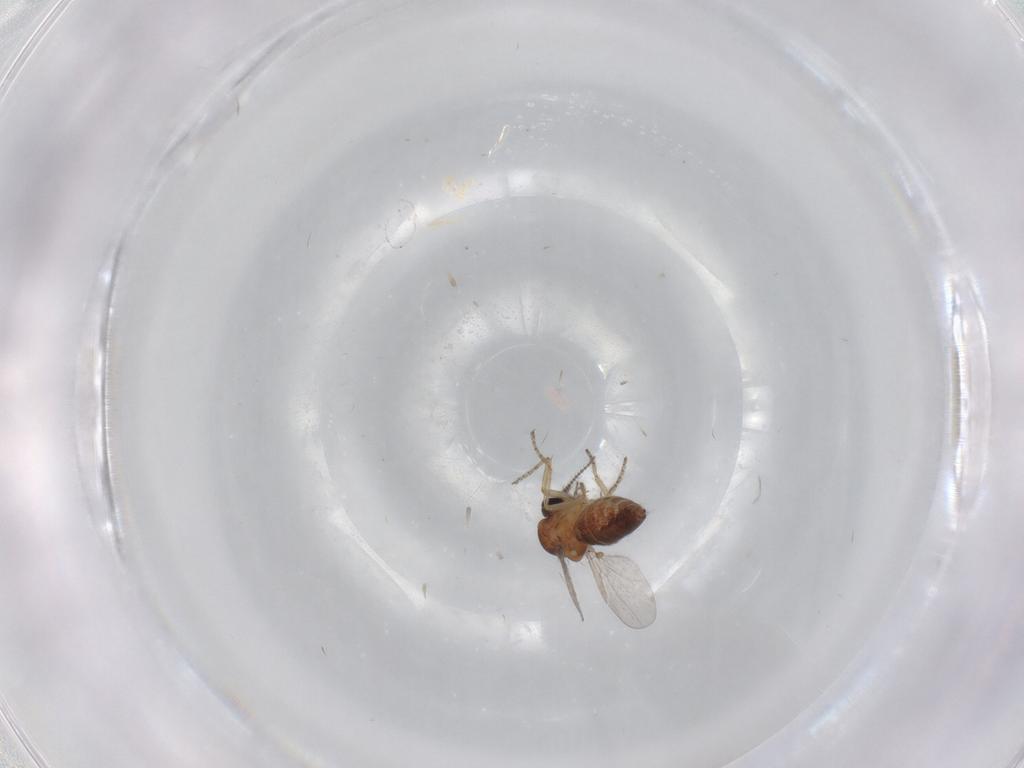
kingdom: Animalia
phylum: Arthropoda
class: Insecta
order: Diptera
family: Ceratopogonidae
